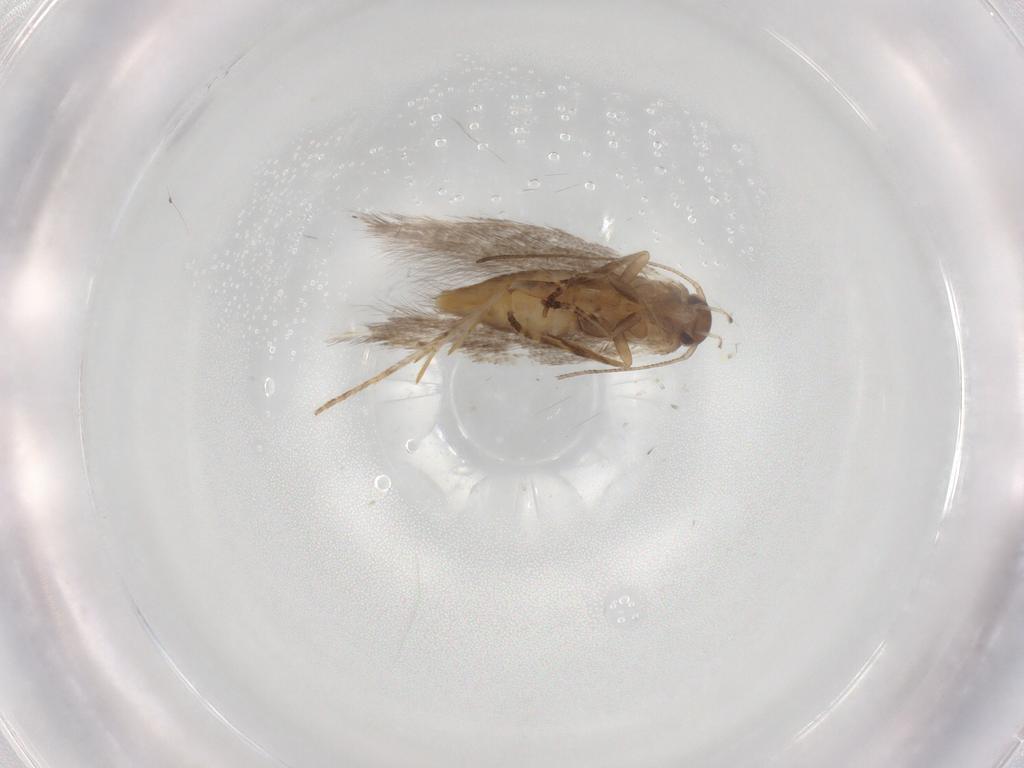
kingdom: Animalia
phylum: Arthropoda
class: Insecta
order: Lepidoptera
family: Elachistidae
